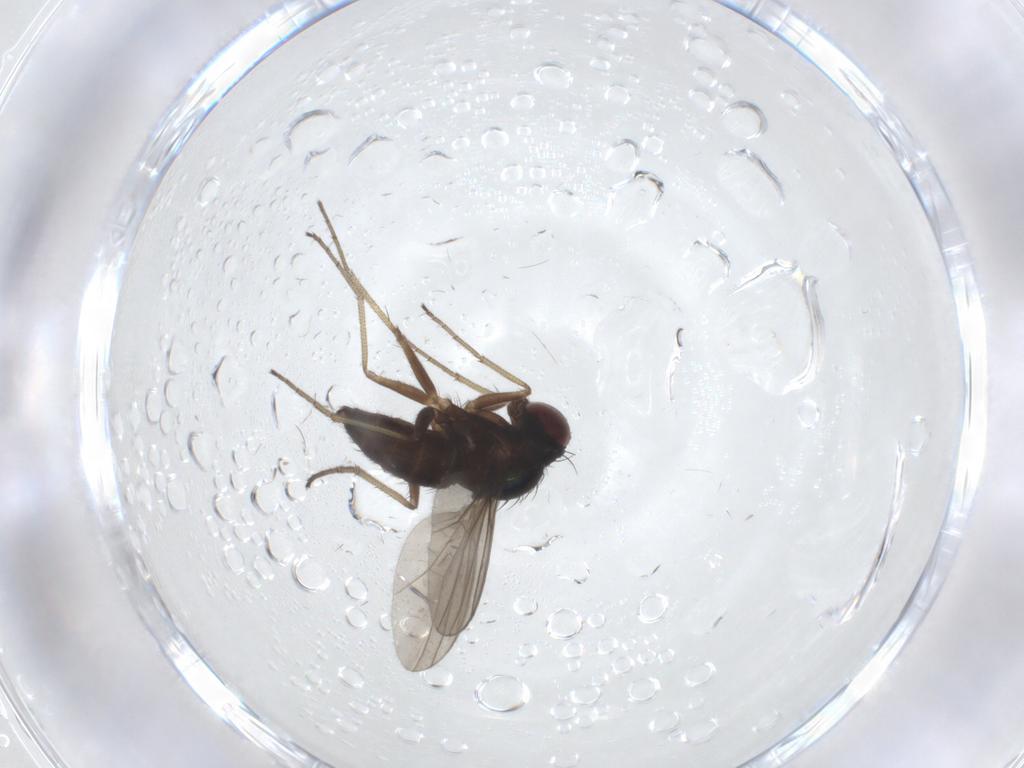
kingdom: Animalia
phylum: Arthropoda
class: Insecta
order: Diptera
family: Dolichopodidae
